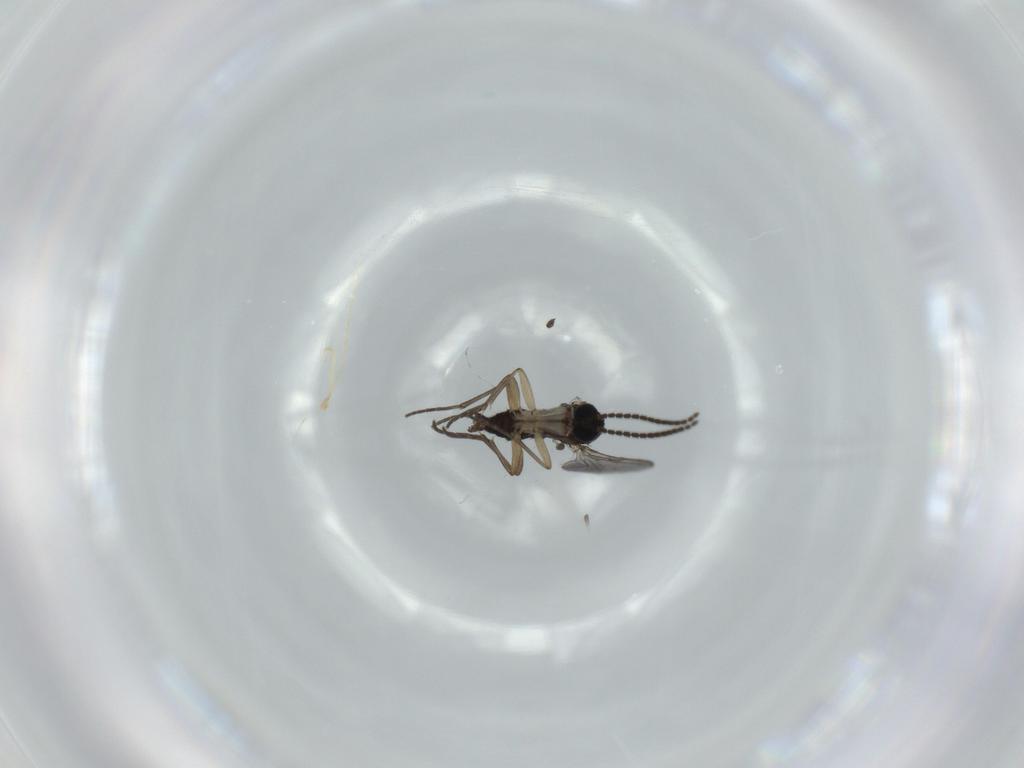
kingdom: Animalia
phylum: Arthropoda
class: Insecta
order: Diptera
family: Sciaridae
